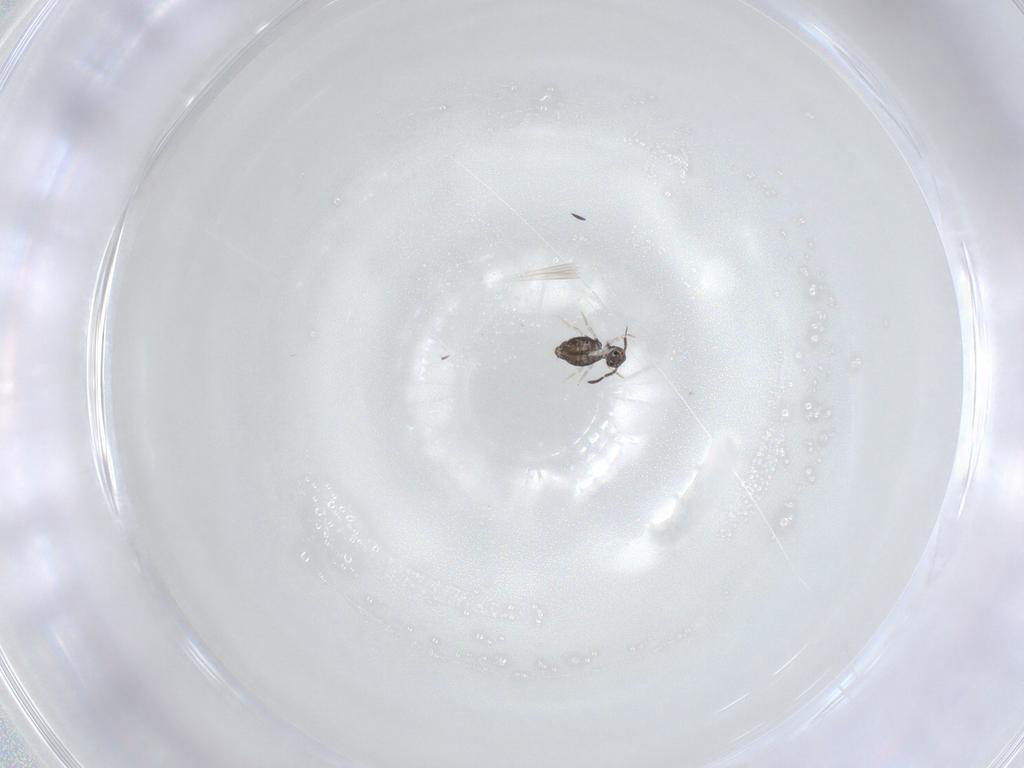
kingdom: Animalia
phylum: Arthropoda
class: Collembola
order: Symphypleona
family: Katiannidae
